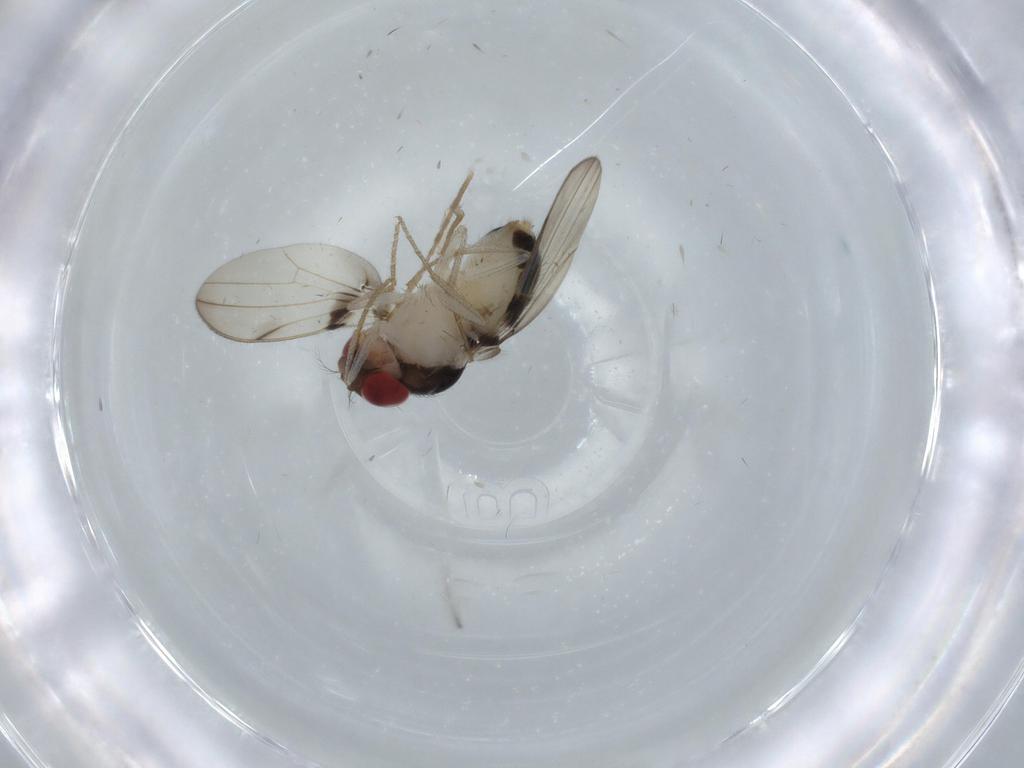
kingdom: Animalia
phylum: Arthropoda
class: Insecta
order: Diptera
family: Drosophilidae
